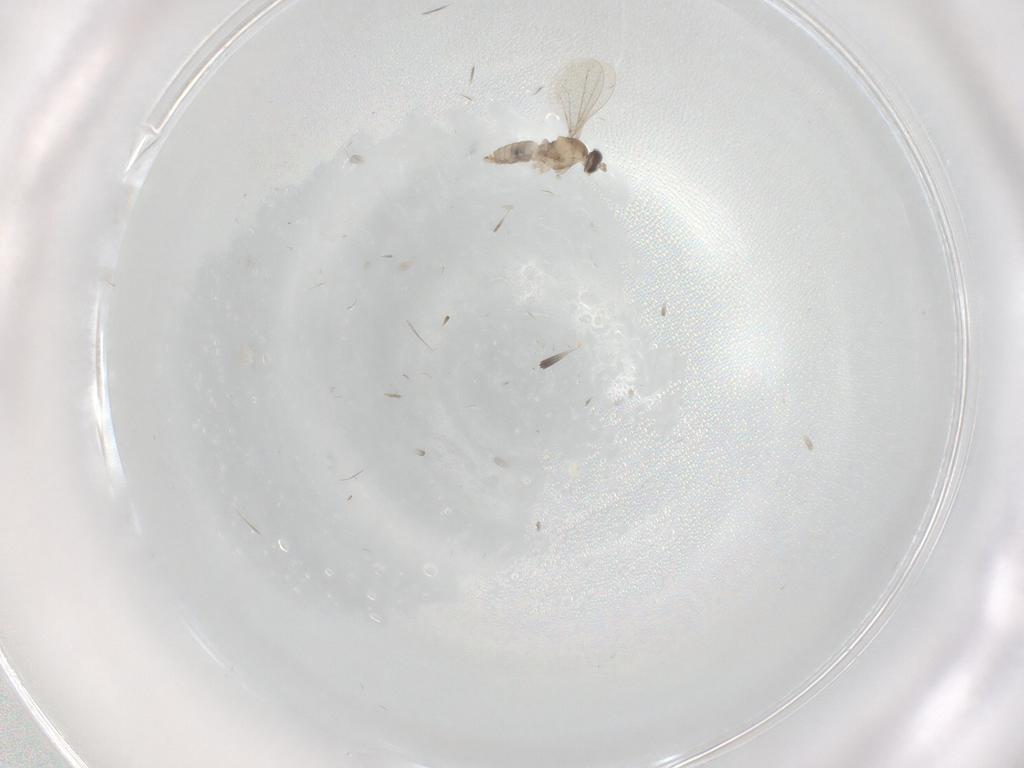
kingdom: Animalia
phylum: Arthropoda
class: Insecta
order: Diptera
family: Cecidomyiidae
